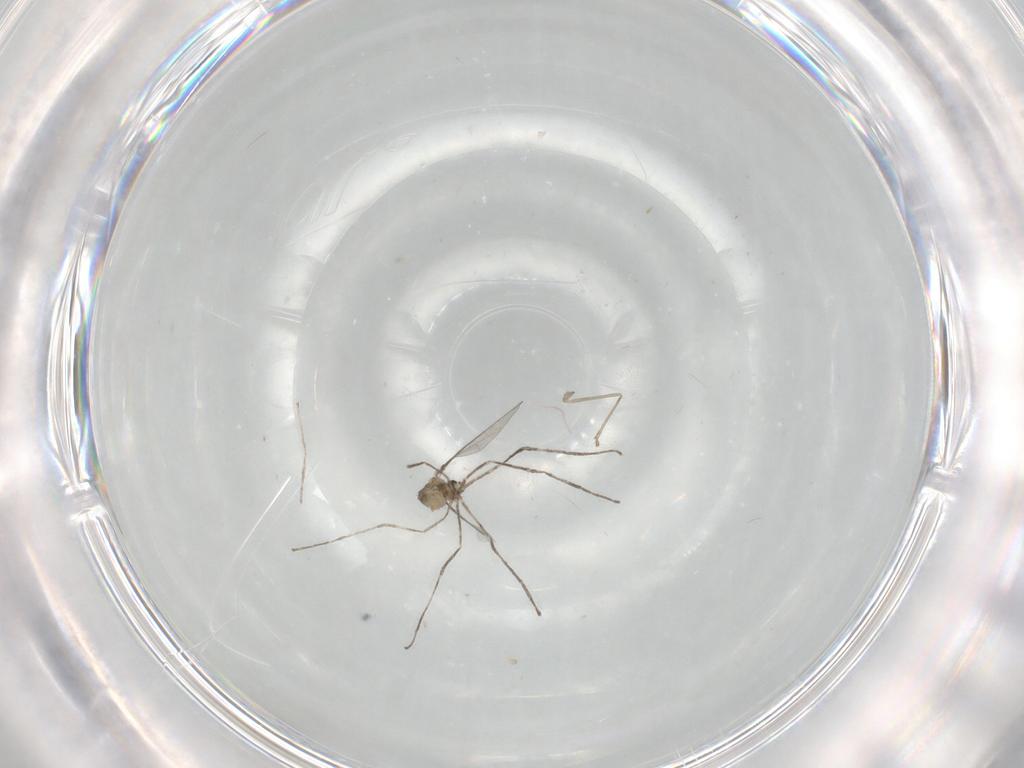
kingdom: Animalia
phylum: Arthropoda
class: Insecta
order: Diptera
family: Cecidomyiidae
